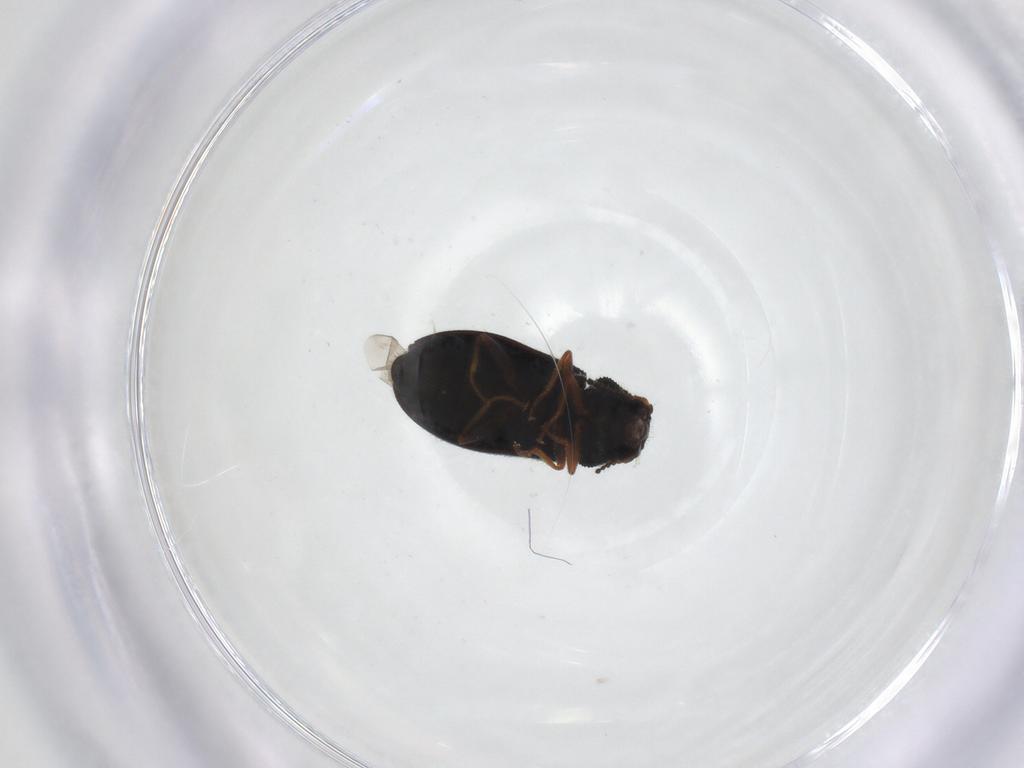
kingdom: Animalia
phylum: Arthropoda
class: Insecta
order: Coleoptera
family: Melyridae
